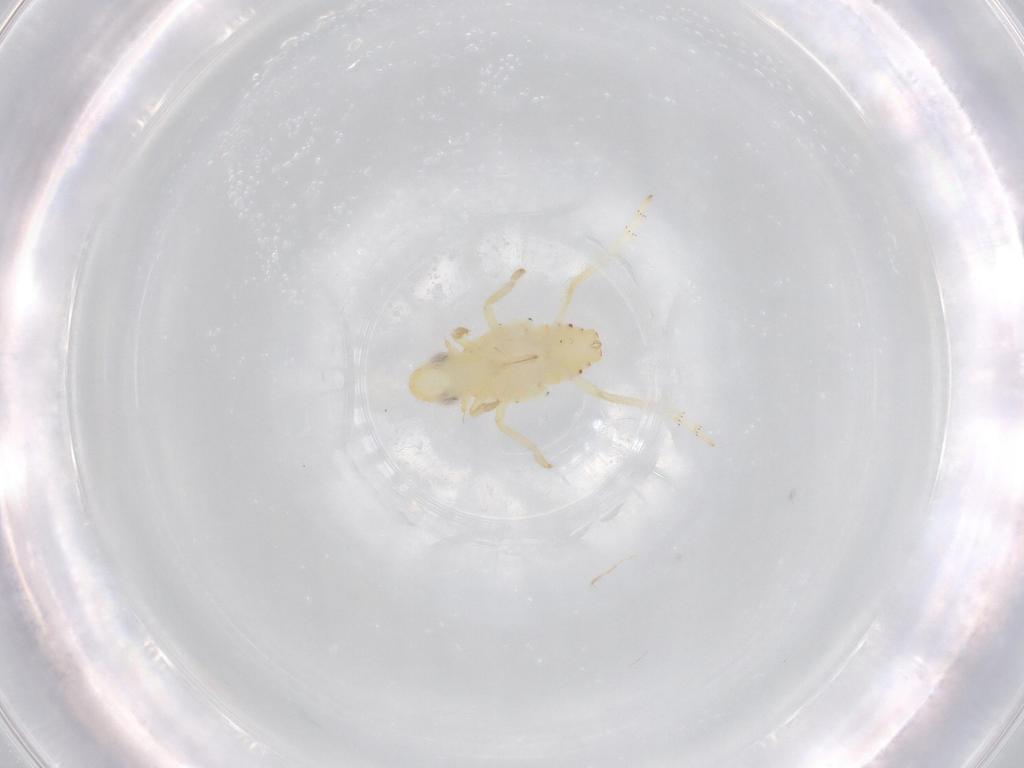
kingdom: Animalia
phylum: Arthropoda
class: Insecta
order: Hemiptera
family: Tropiduchidae
